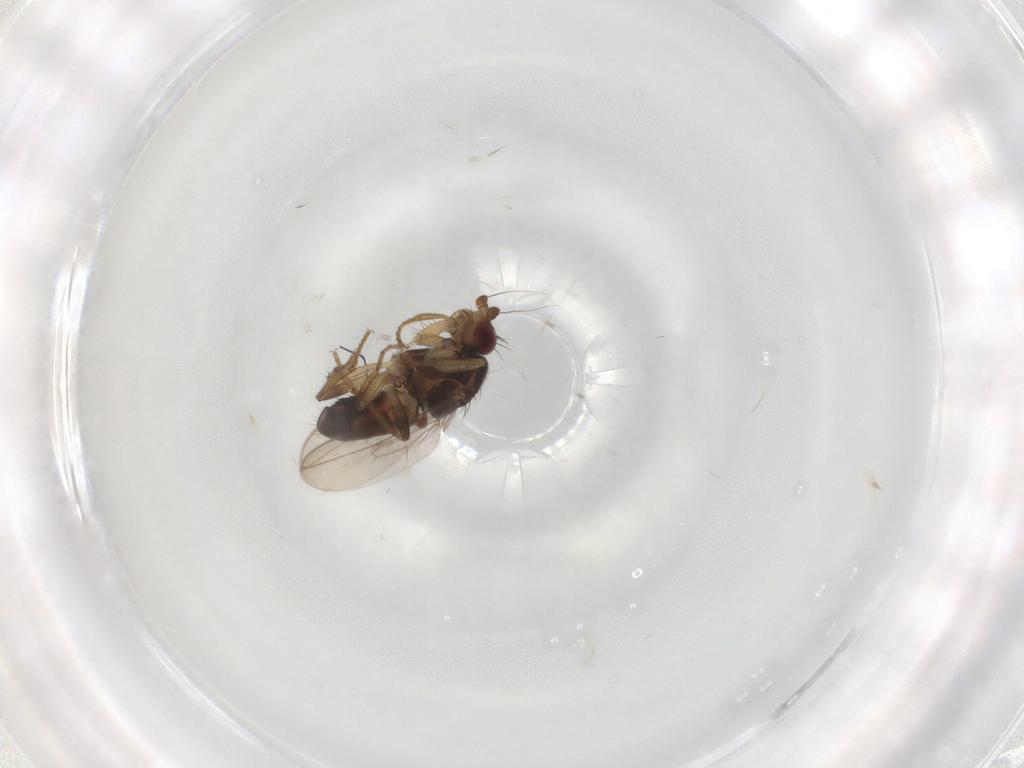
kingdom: Animalia
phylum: Arthropoda
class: Insecta
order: Diptera
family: Sphaeroceridae
